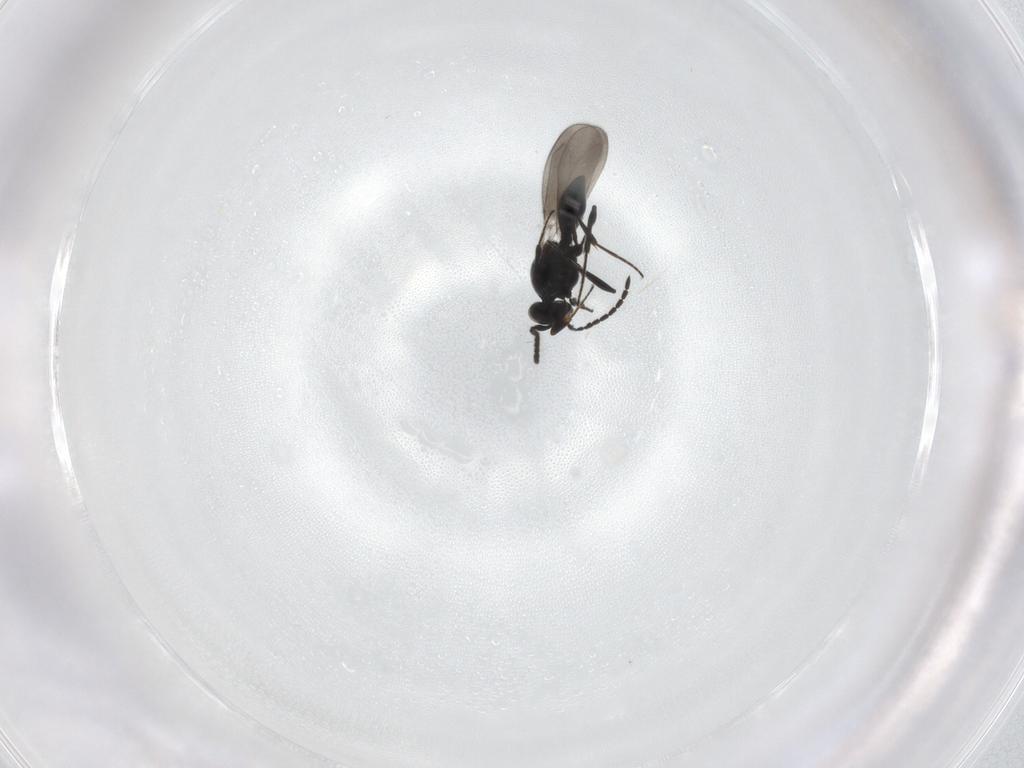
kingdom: Animalia
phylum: Arthropoda
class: Insecta
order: Hymenoptera
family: Platygastridae
